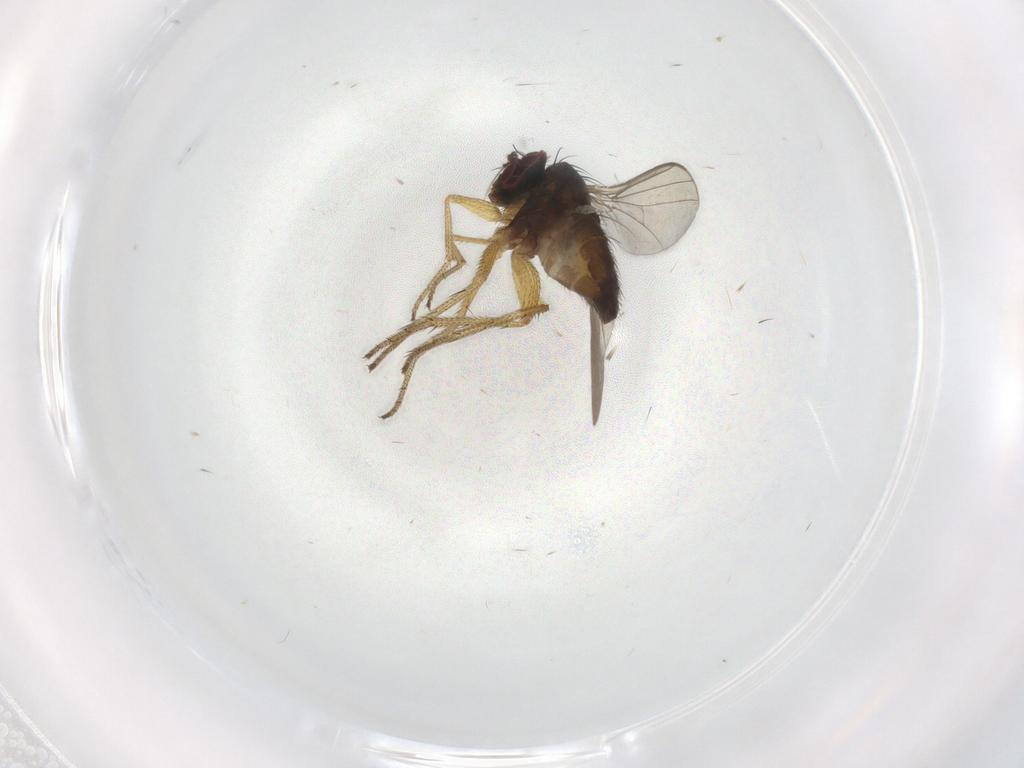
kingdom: Animalia
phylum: Arthropoda
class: Insecta
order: Diptera
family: Dolichopodidae
